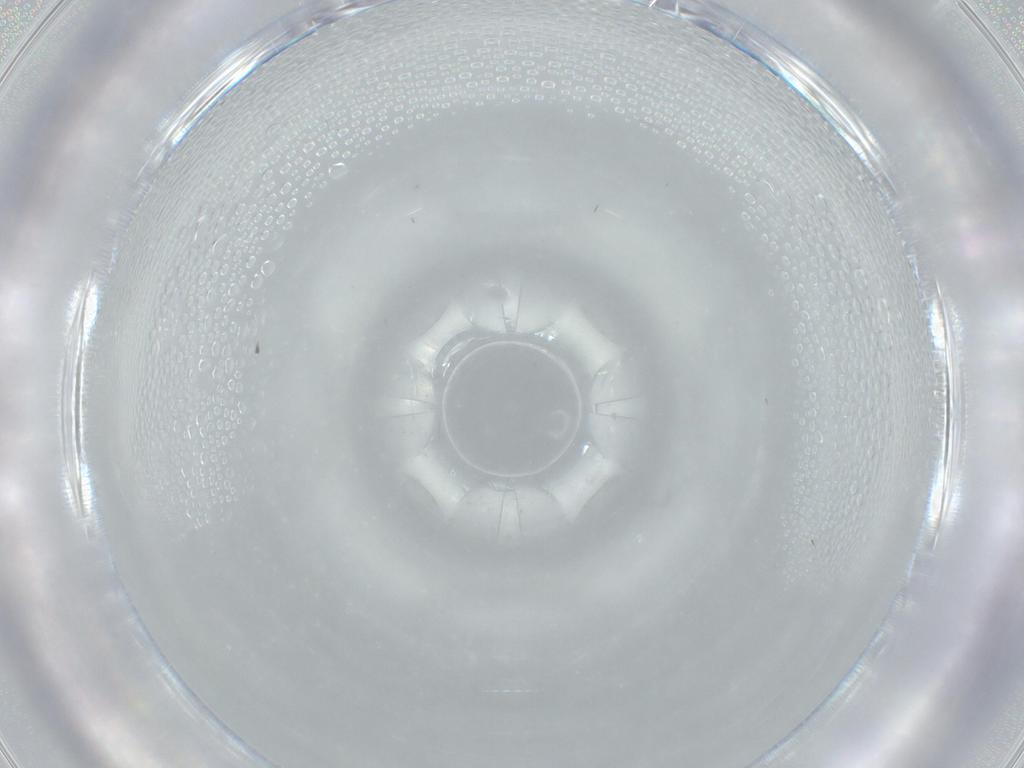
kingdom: Animalia
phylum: Arthropoda
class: Insecta
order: Diptera
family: Cecidomyiidae
